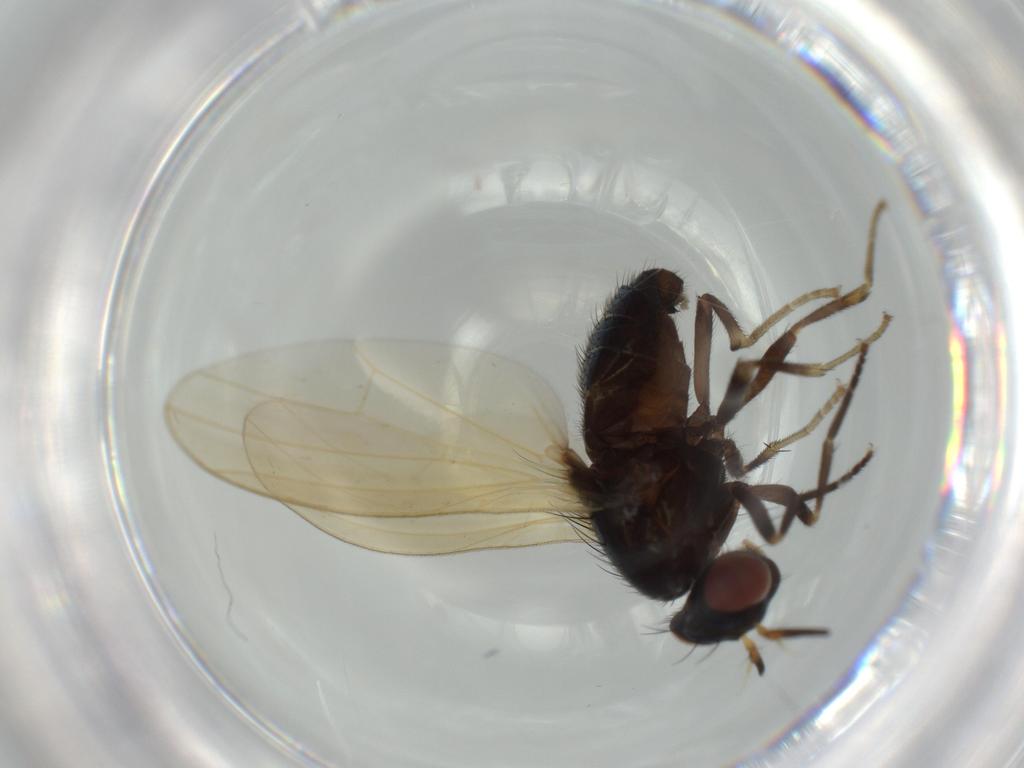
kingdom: Animalia
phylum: Arthropoda
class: Insecta
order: Diptera
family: Culicidae
